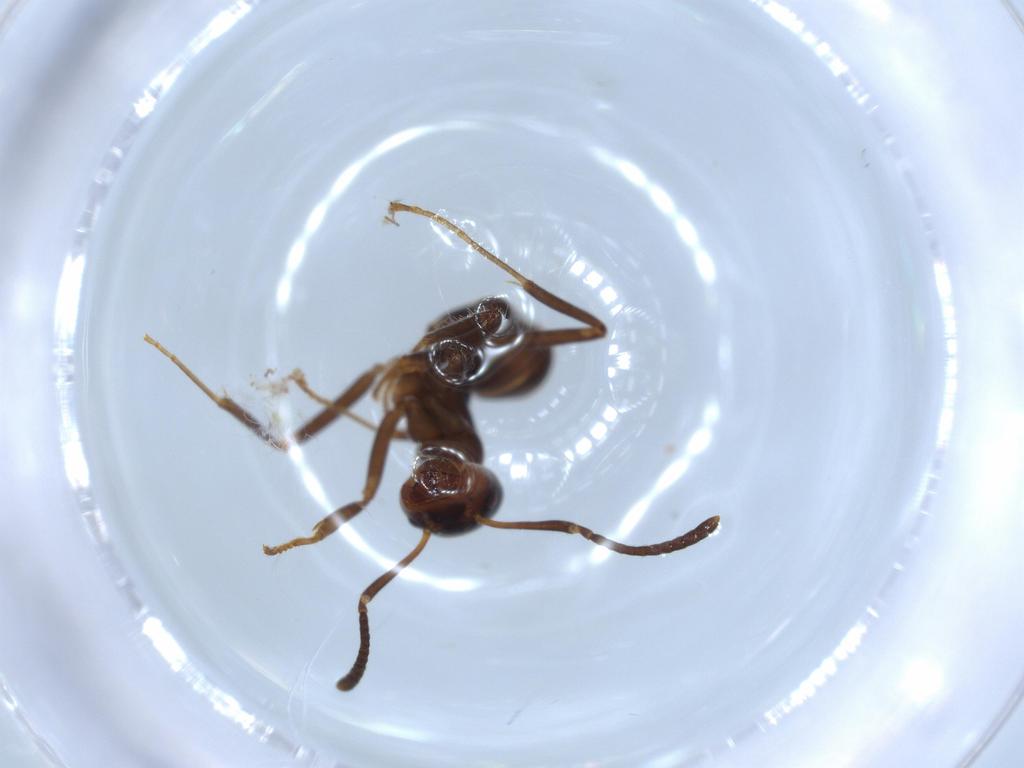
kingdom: Animalia
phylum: Arthropoda
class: Insecta
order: Hymenoptera
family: Formicidae
